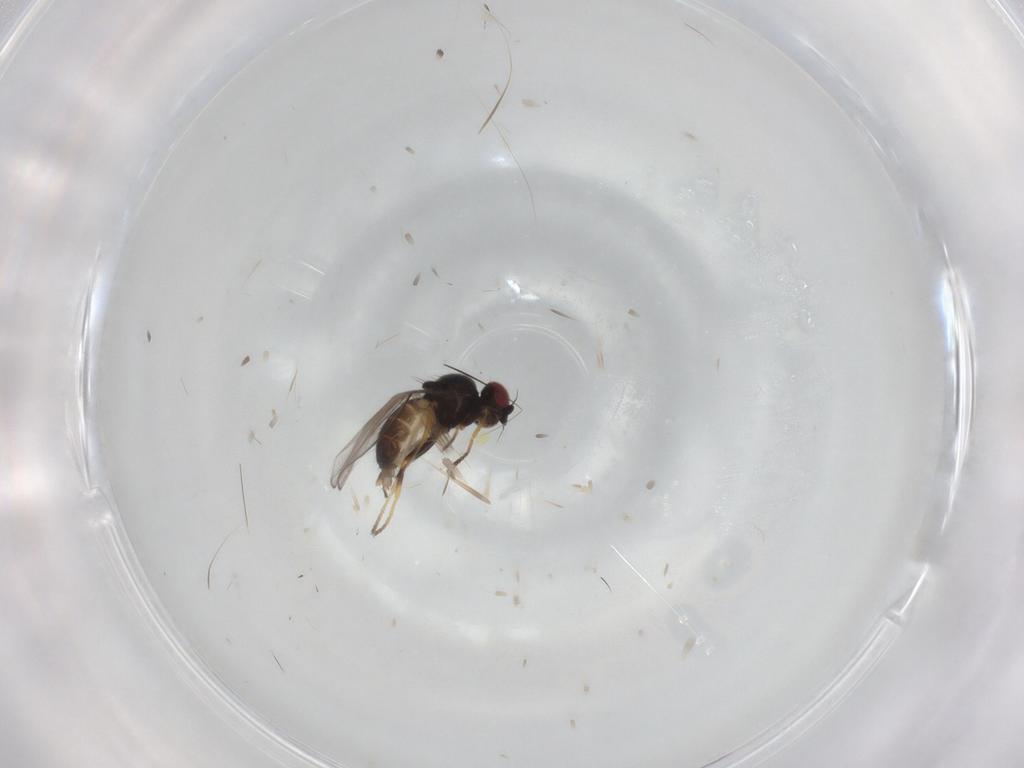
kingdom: Animalia
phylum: Arthropoda
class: Insecta
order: Diptera
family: Chloropidae
